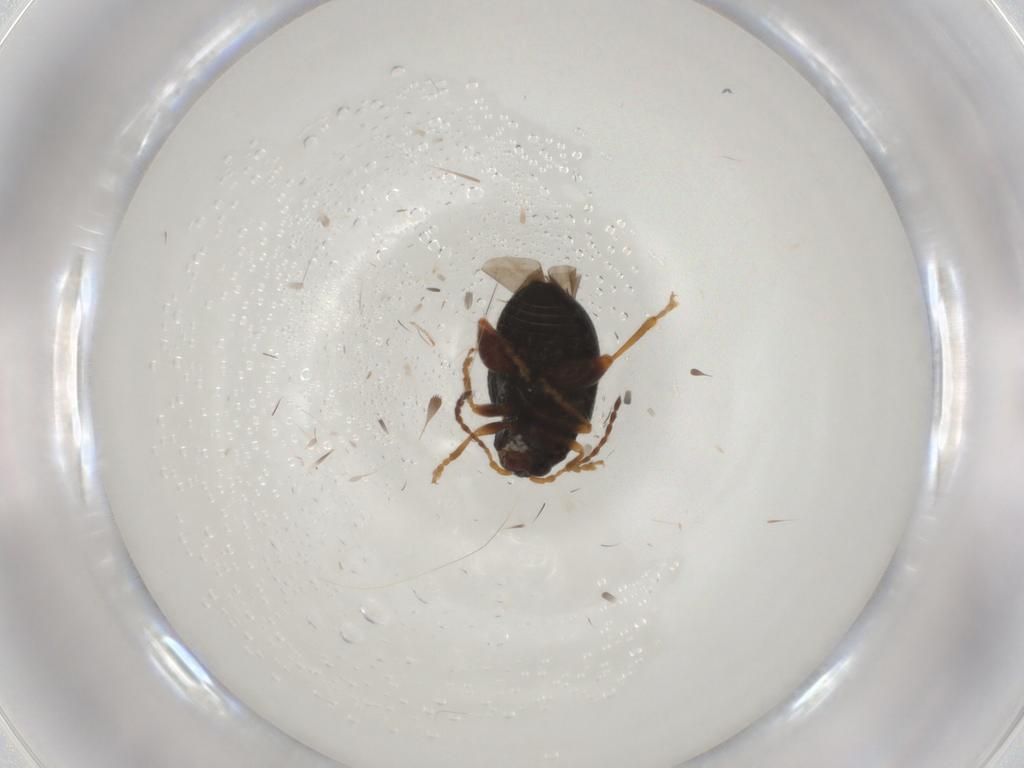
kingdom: Animalia
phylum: Arthropoda
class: Insecta
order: Coleoptera
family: Chrysomelidae
